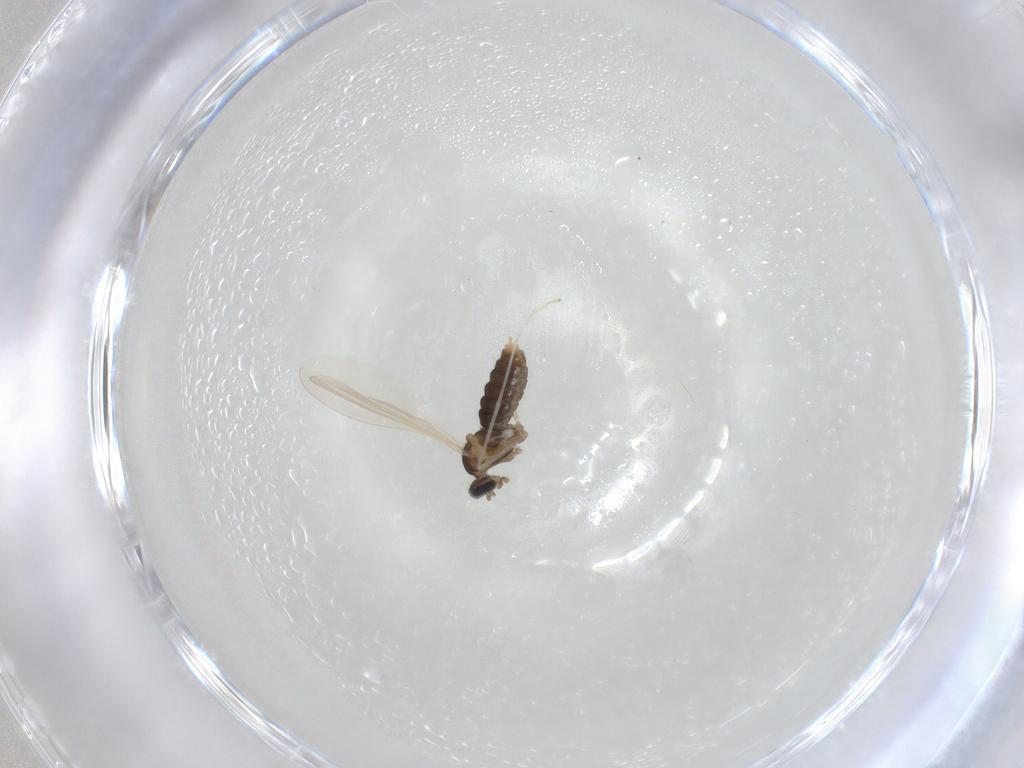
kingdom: Animalia
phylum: Arthropoda
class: Insecta
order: Diptera
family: Cecidomyiidae
